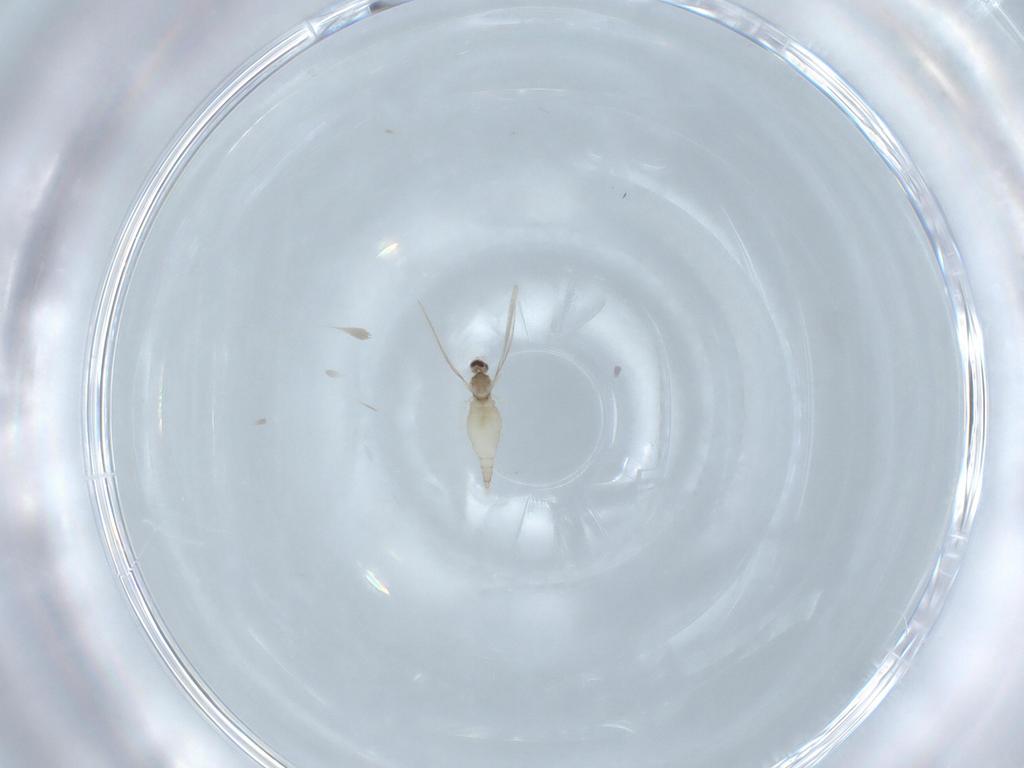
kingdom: Animalia
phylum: Arthropoda
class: Insecta
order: Diptera
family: Cecidomyiidae
